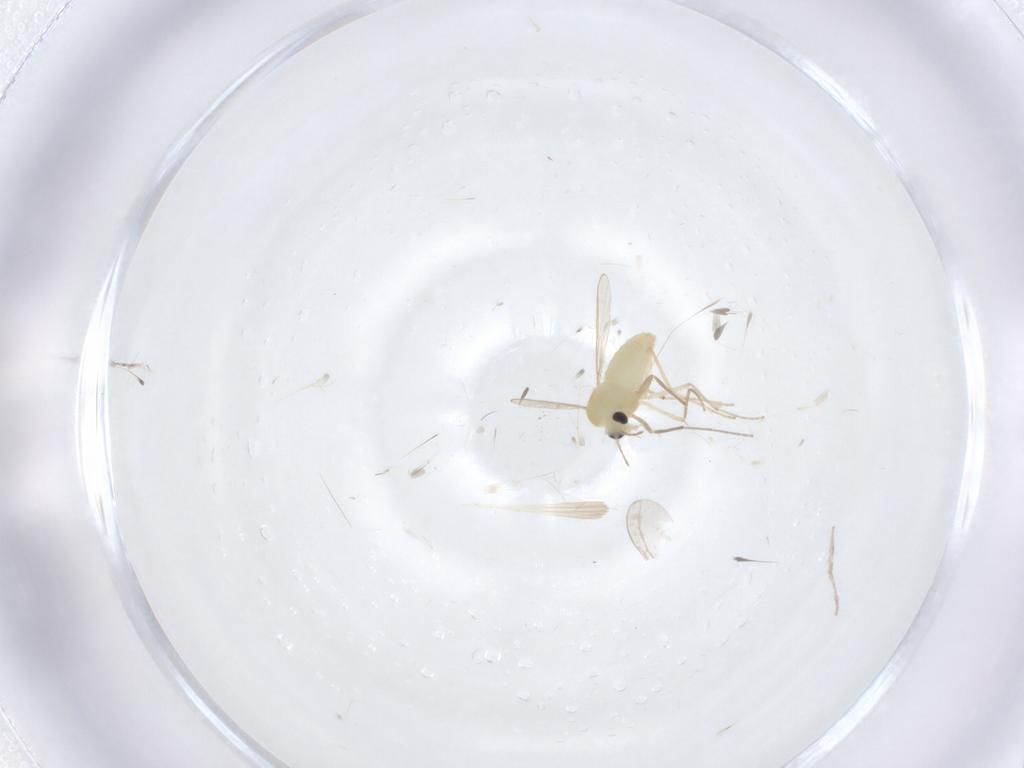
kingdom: Animalia
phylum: Arthropoda
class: Insecta
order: Diptera
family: Chironomidae
